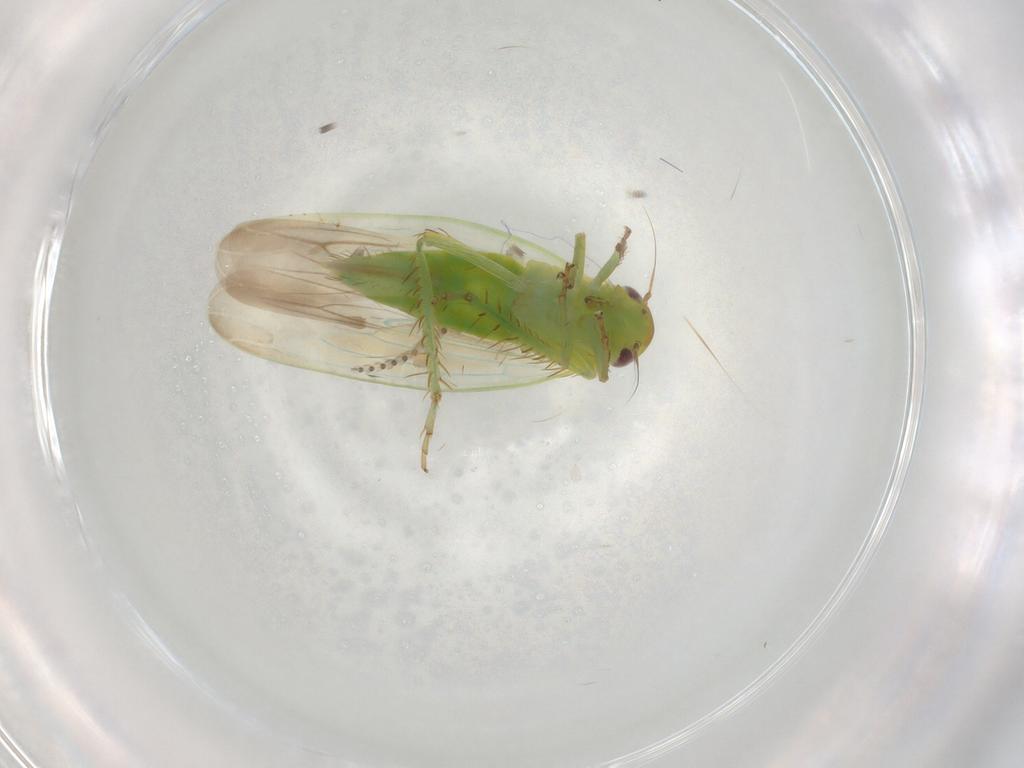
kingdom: Animalia
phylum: Arthropoda
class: Insecta
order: Hemiptera
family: Cicadellidae
